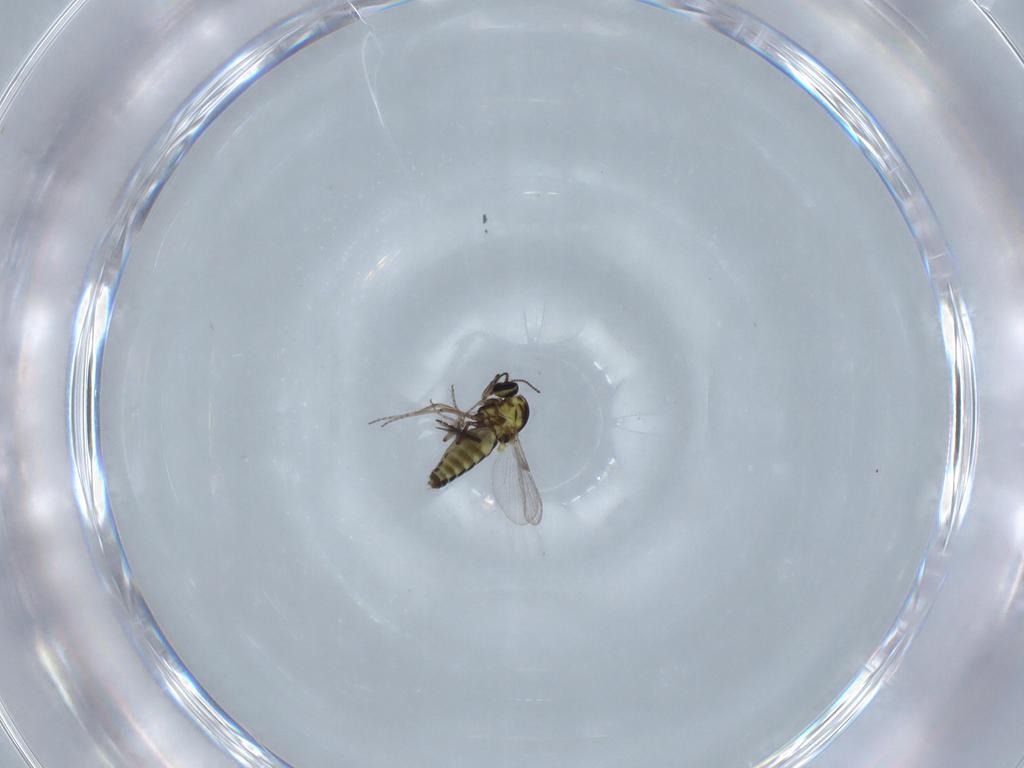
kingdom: Animalia
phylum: Arthropoda
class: Insecta
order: Diptera
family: Ceratopogonidae
